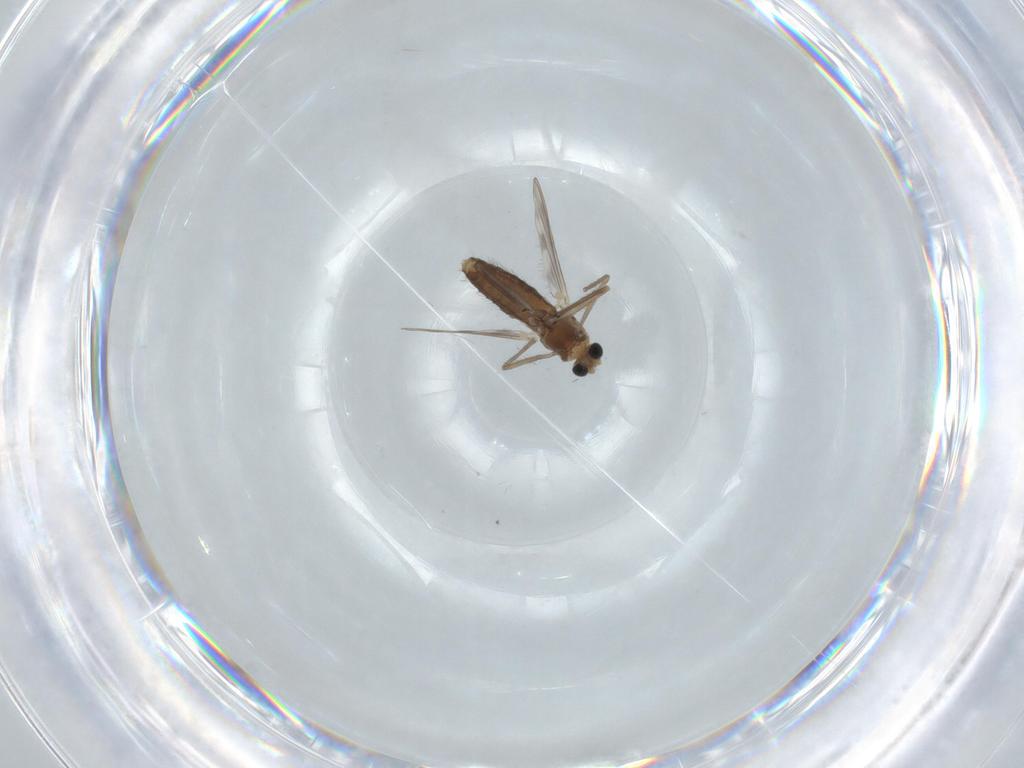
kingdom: Animalia
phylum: Arthropoda
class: Insecta
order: Diptera
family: Chironomidae
